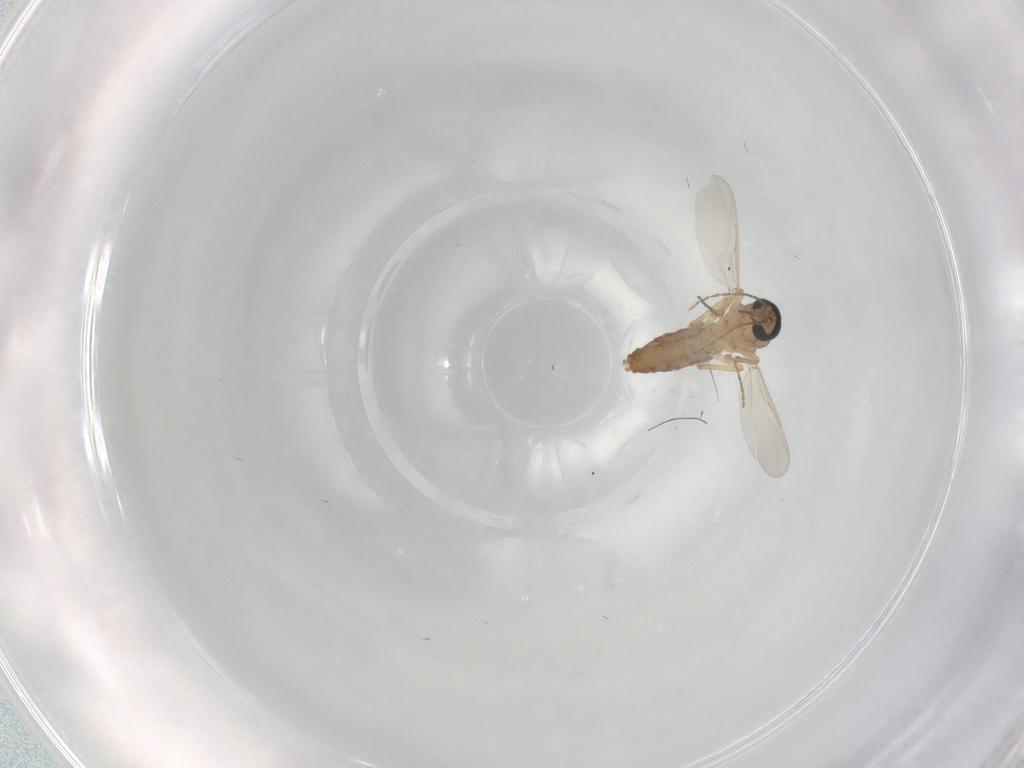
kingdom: Animalia
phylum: Arthropoda
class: Insecta
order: Diptera
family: Ceratopogonidae
